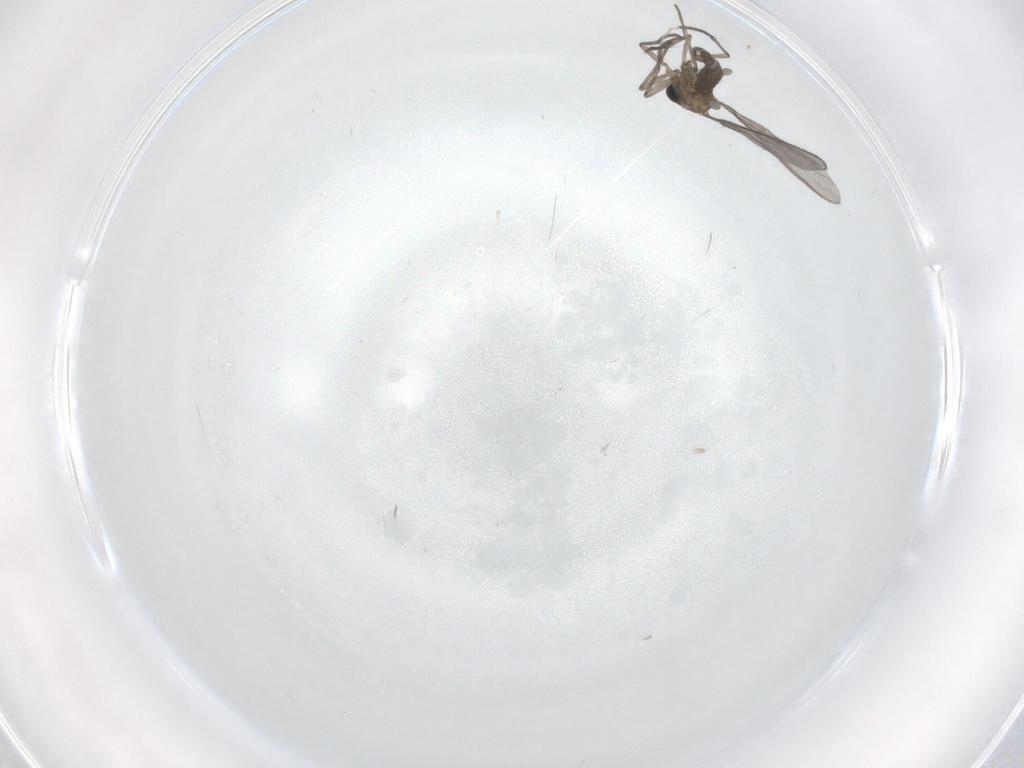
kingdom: Animalia
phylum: Arthropoda
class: Insecta
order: Diptera
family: Sciaridae
